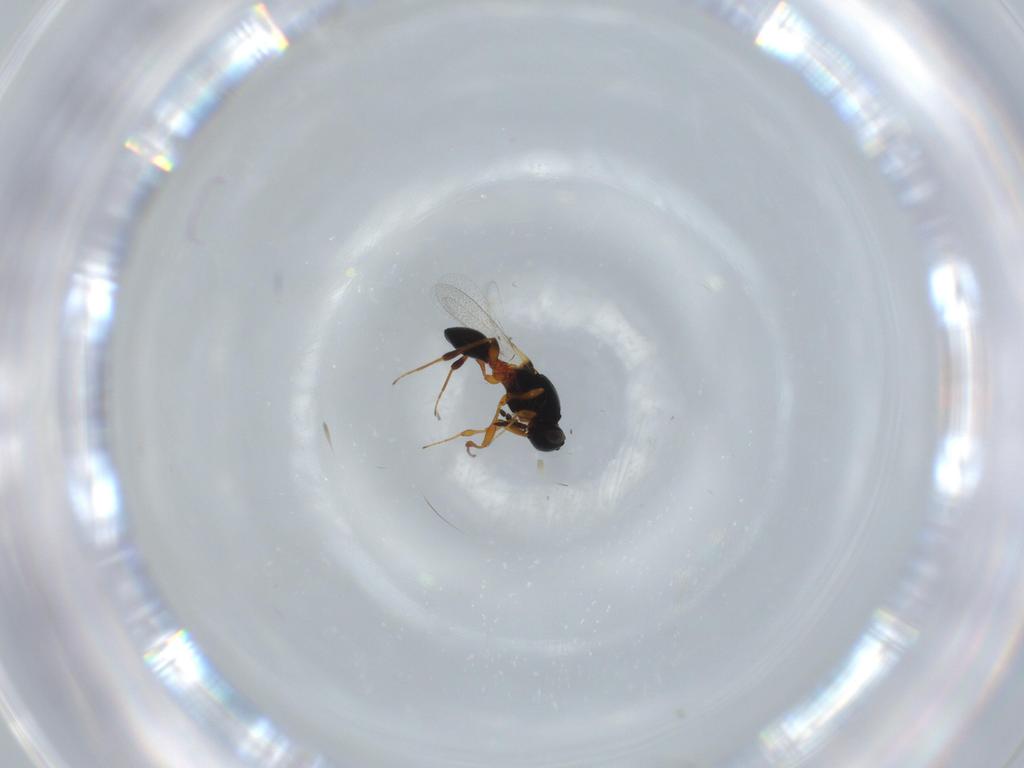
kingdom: Animalia
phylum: Arthropoda
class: Insecta
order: Hymenoptera
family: Platygastridae
